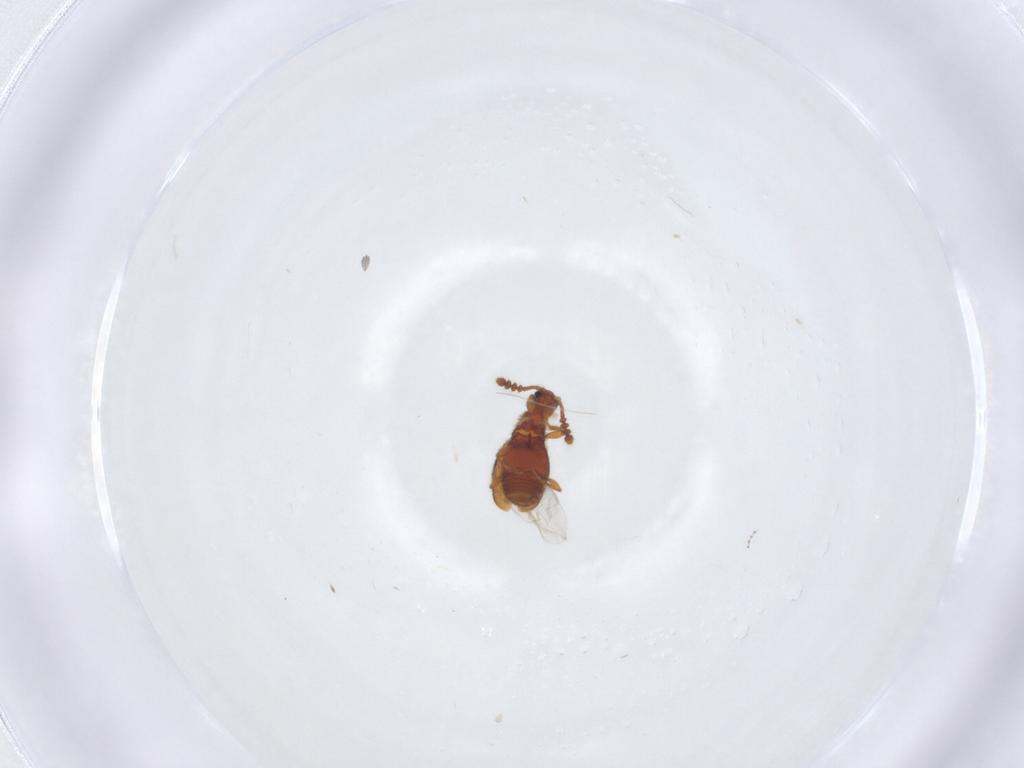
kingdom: Animalia
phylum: Arthropoda
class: Insecta
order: Coleoptera
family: Staphylinidae
